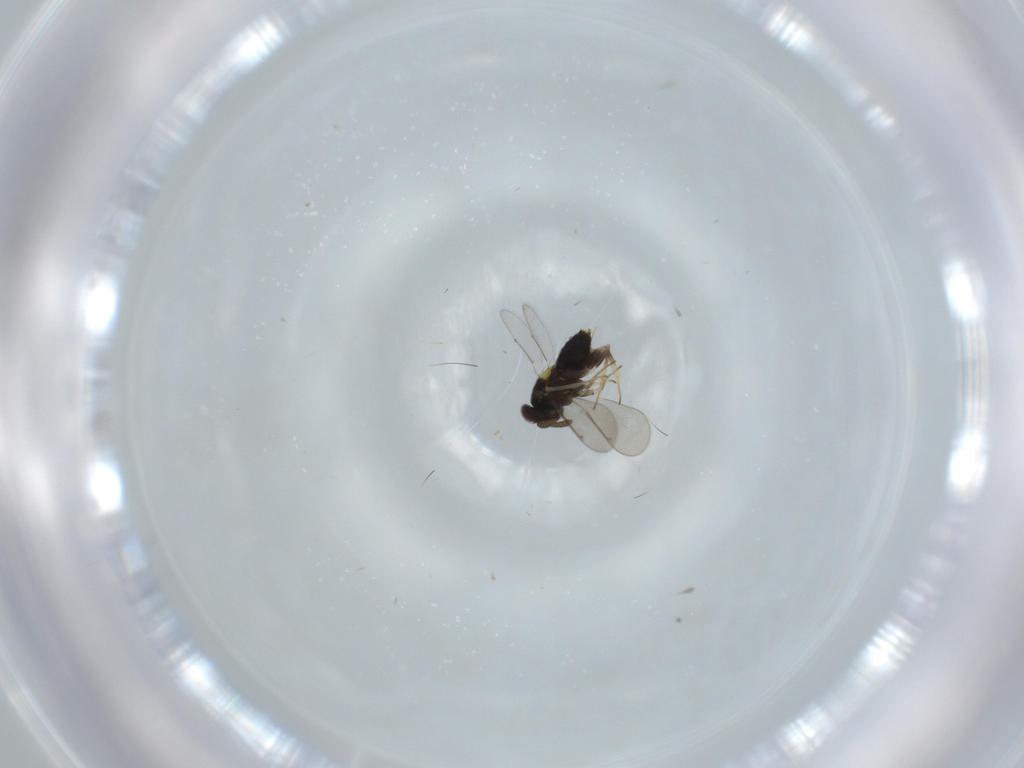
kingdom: Animalia
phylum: Arthropoda
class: Insecta
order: Hymenoptera
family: Aphelinidae
